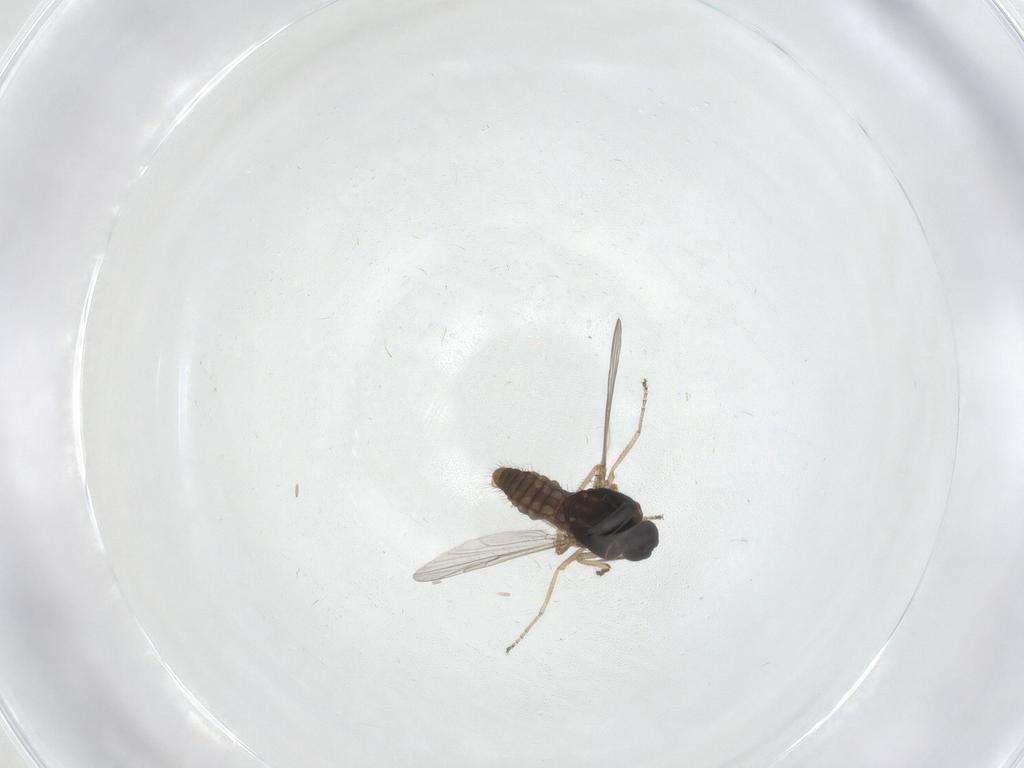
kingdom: Animalia
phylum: Arthropoda
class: Insecta
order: Diptera
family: Ceratopogonidae
